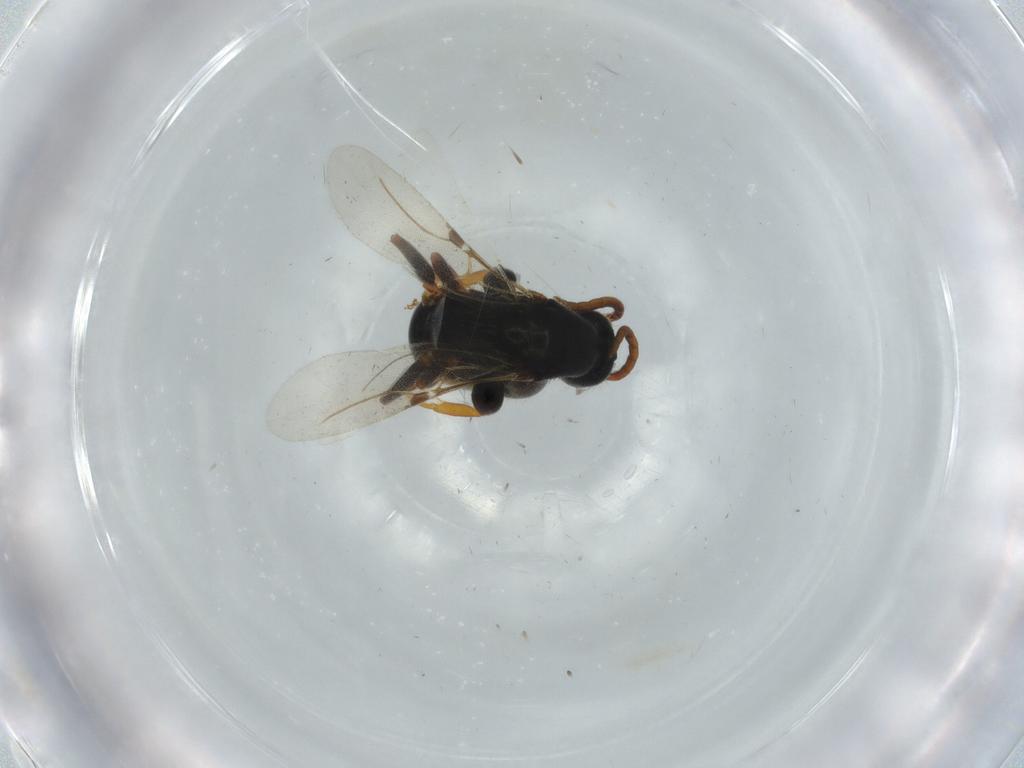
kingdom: Animalia
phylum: Arthropoda
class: Insecta
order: Hymenoptera
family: Bethylidae
